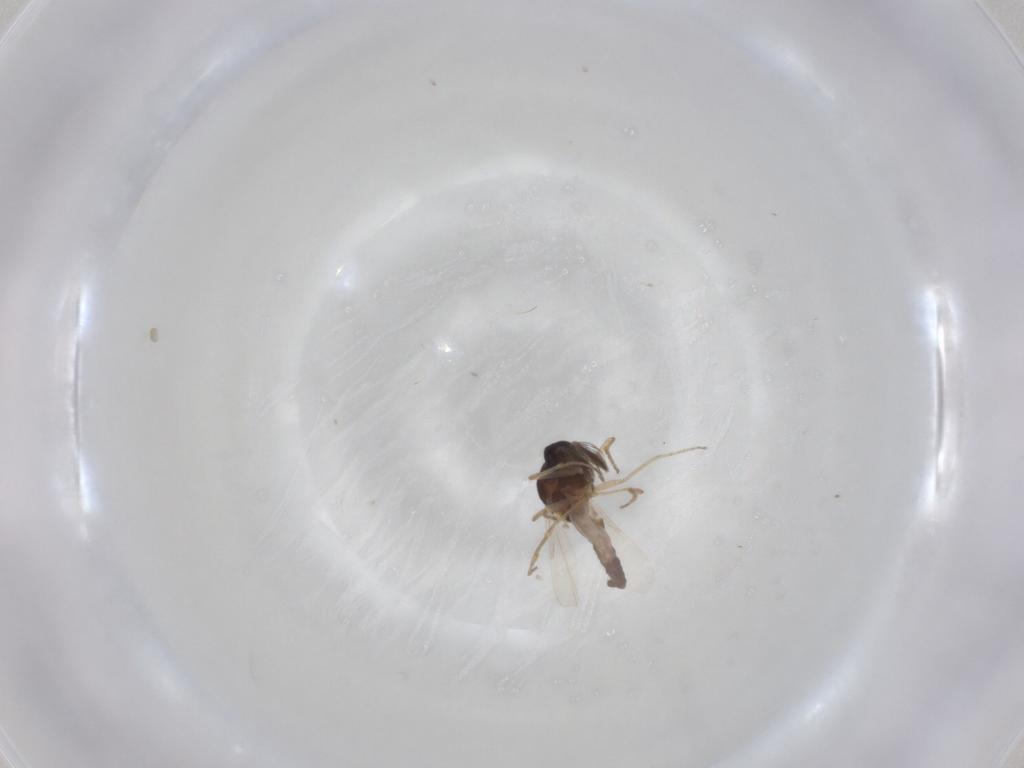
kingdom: Animalia
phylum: Arthropoda
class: Insecta
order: Diptera
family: Ceratopogonidae
